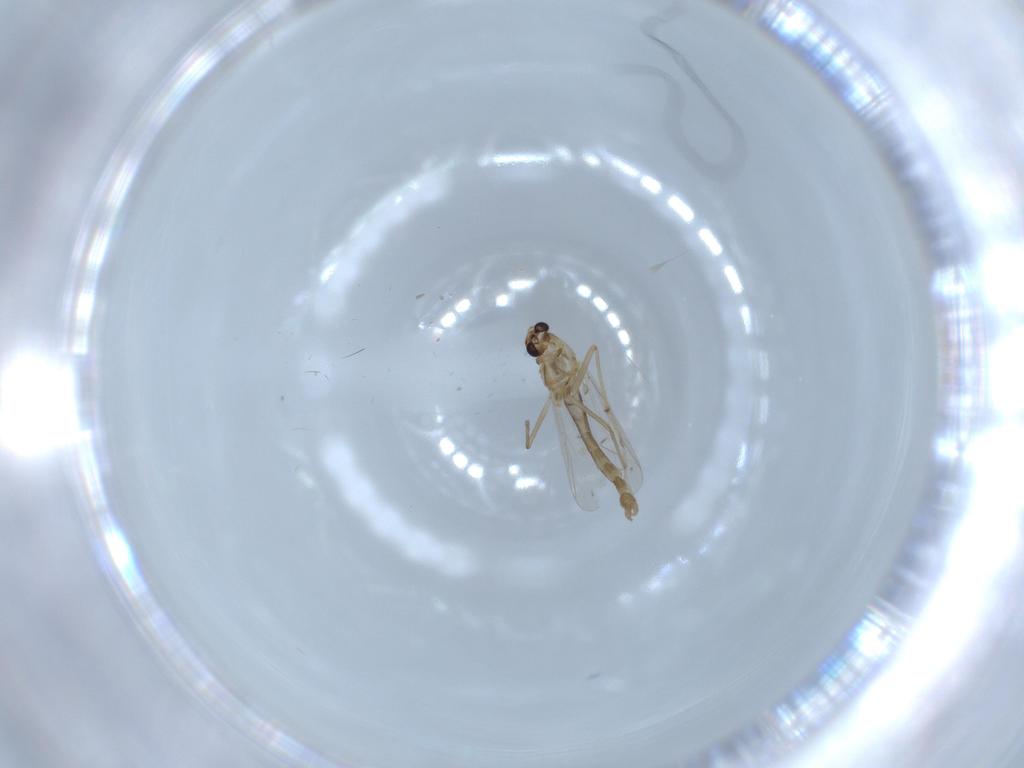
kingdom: Animalia
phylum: Arthropoda
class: Insecta
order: Diptera
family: Chironomidae
